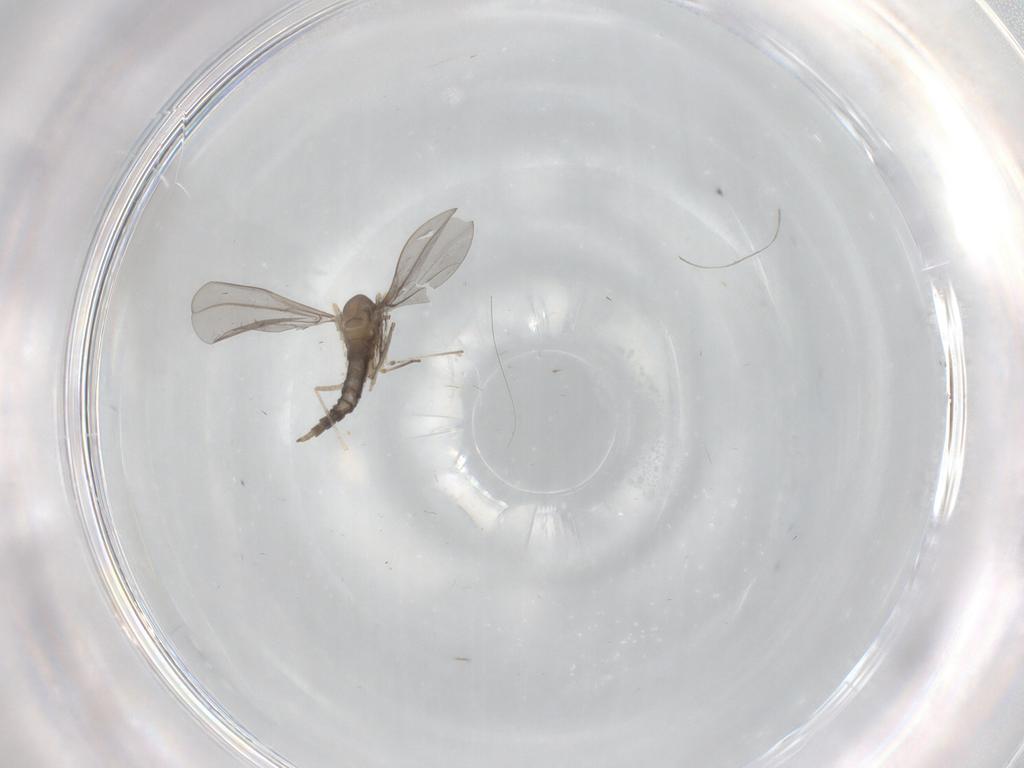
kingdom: Animalia
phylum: Arthropoda
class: Insecta
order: Diptera
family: Cecidomyiidae
